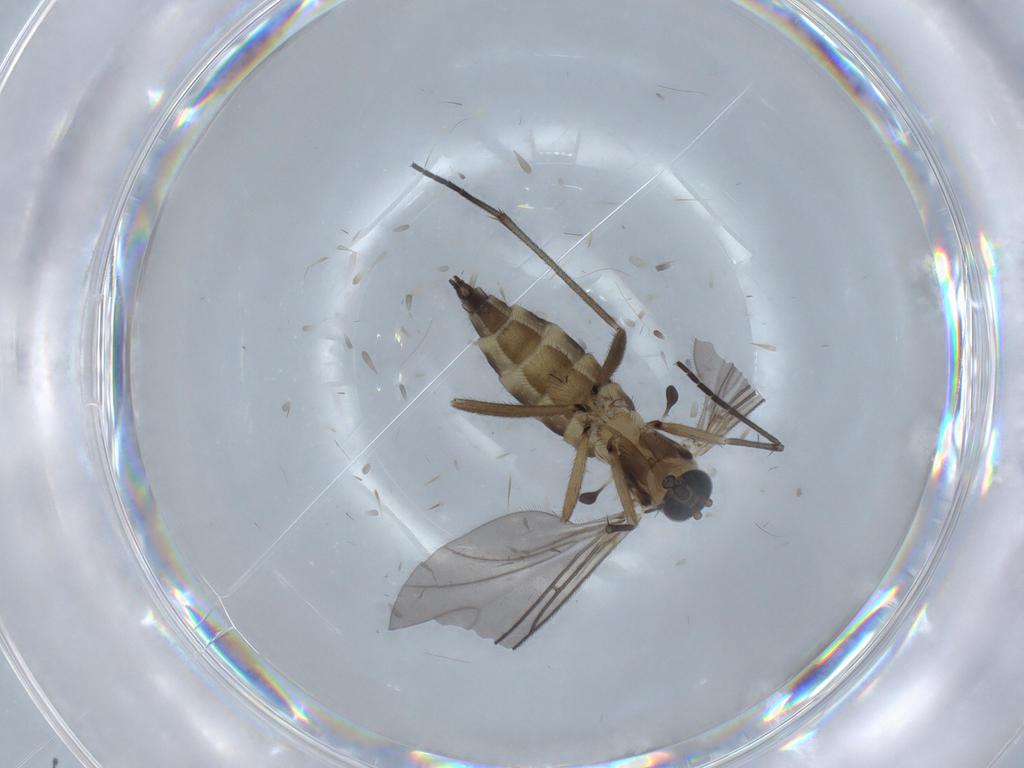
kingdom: Animalia
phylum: Arthropoda
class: Insecta
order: Diptera
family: Sciaridae
